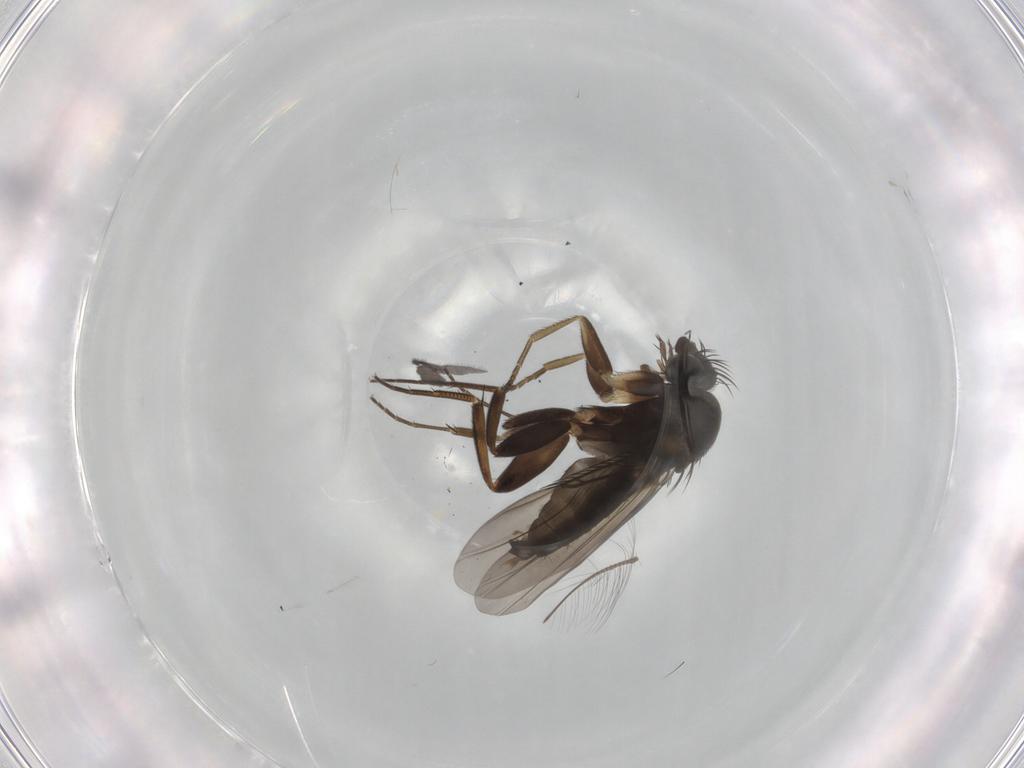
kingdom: Animalia
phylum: Arthropoda
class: Insecta
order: Diptera
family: Phoridae
